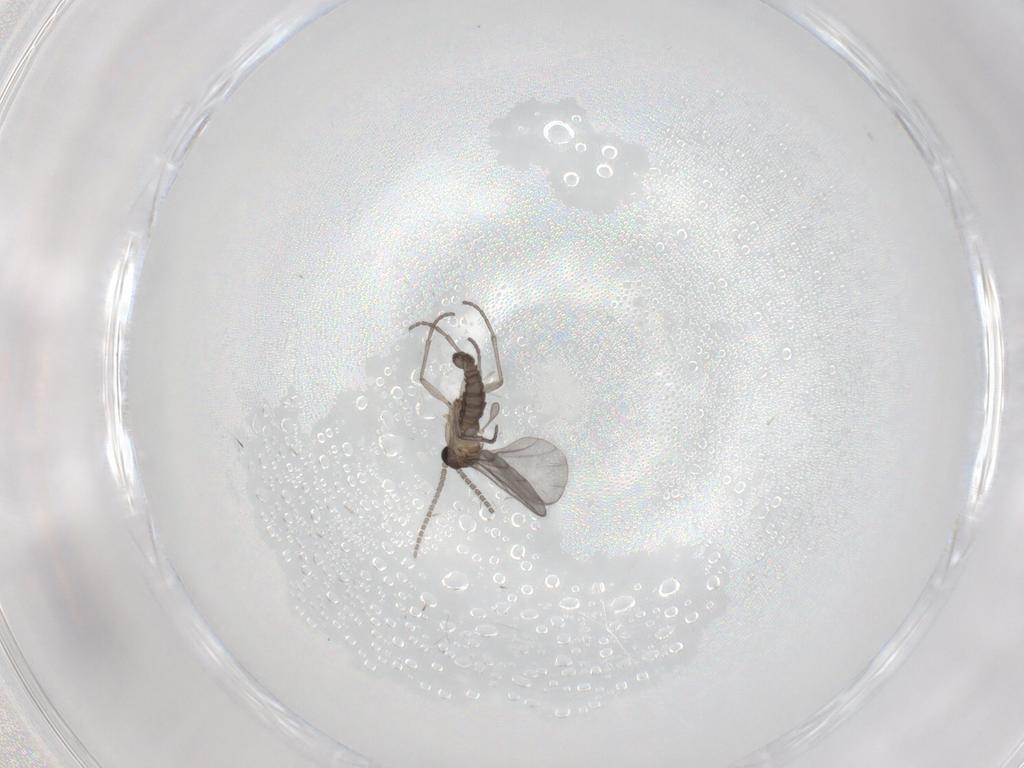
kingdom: Animalia
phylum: Arthropoda
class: Insecta
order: Diptera
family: Sciaridae
